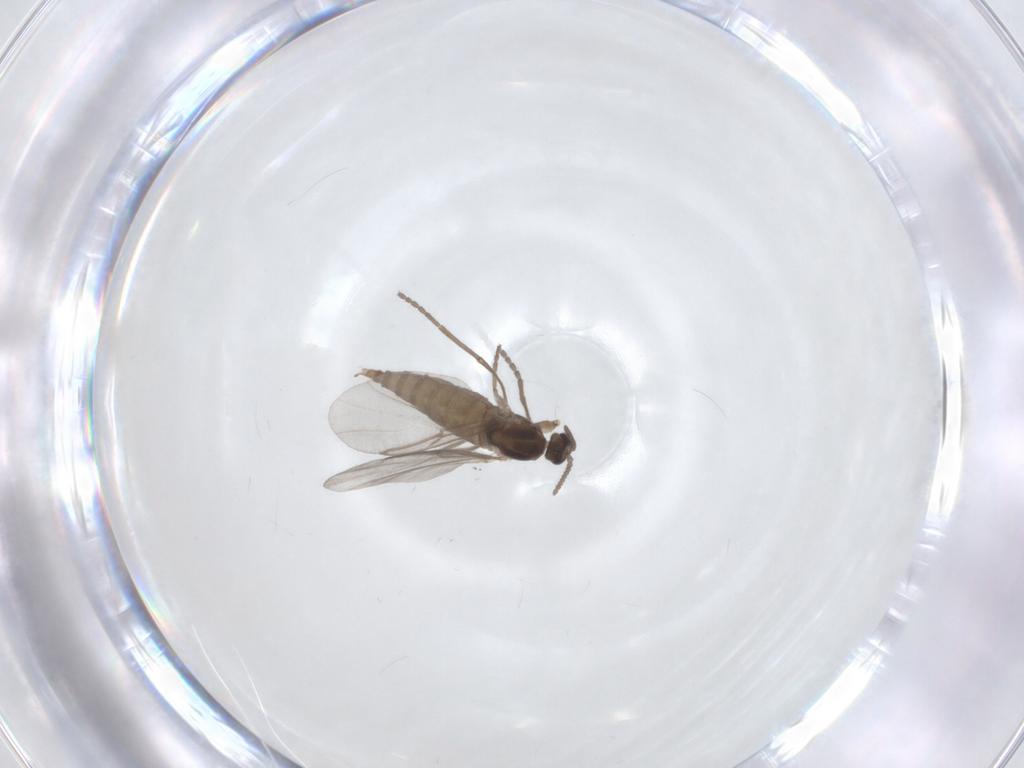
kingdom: Animalia
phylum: Arthropoda
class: Insecta
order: Diptera
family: Cecidomyiidae
